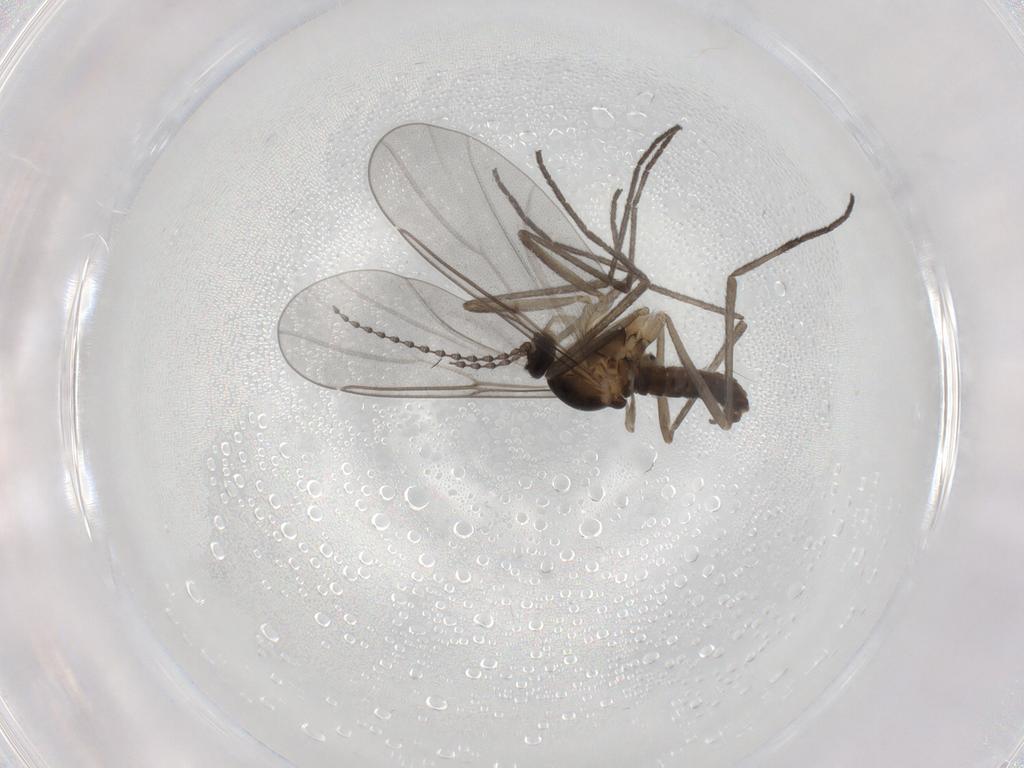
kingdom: Animalia
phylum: Arthropoda
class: Insecta
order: Diptera
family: Cecidomyiidae
